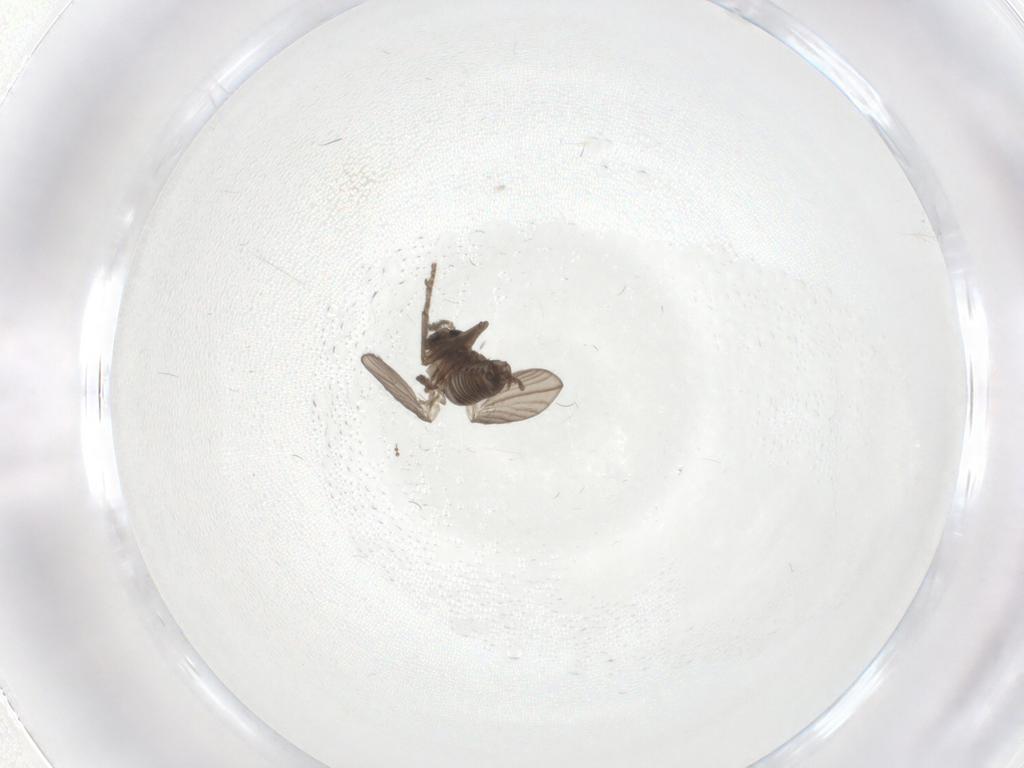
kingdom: Animalia
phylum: Arthropoda
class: Insecta
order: Diptera
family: Psychodidae
